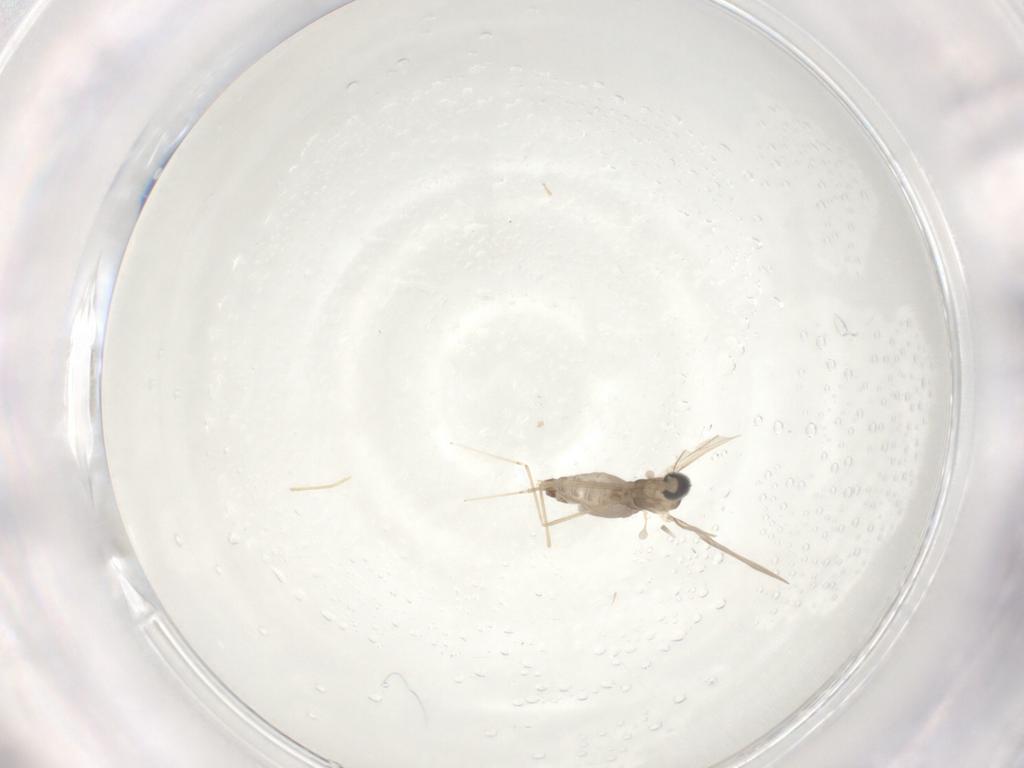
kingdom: Animalia
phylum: Arthropoda
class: Insecta
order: Diptera
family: Cecidomyiidae
